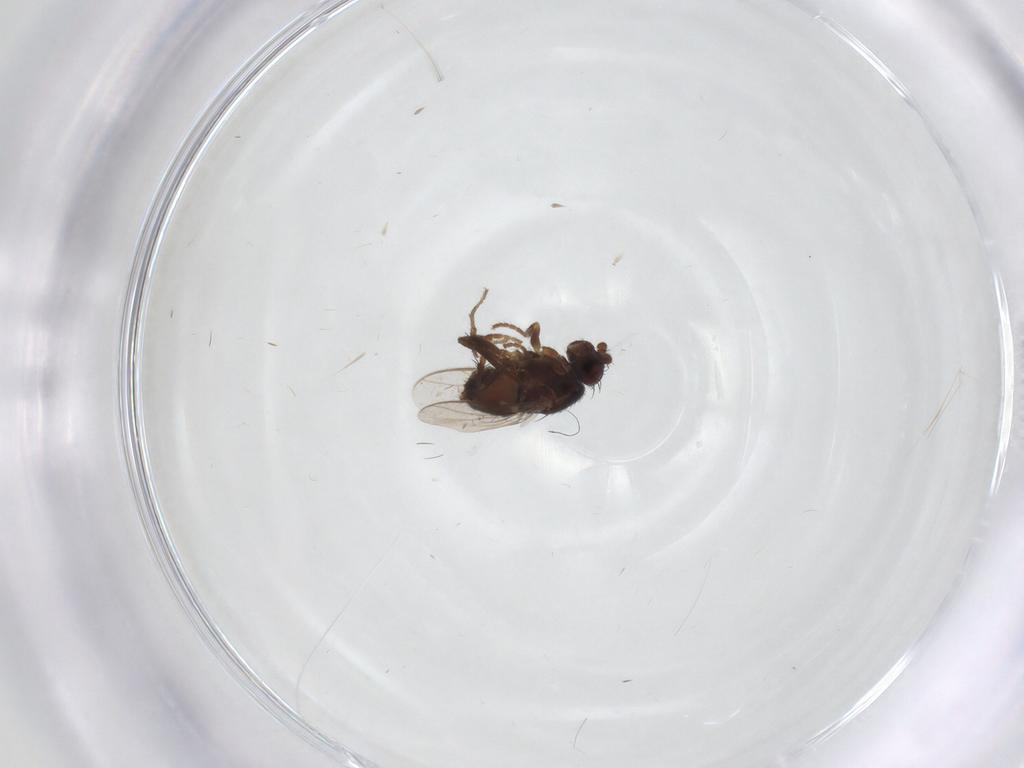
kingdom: Animalia
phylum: Arthropoda
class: Insecta
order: Diptera
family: Sphaeroceridae
